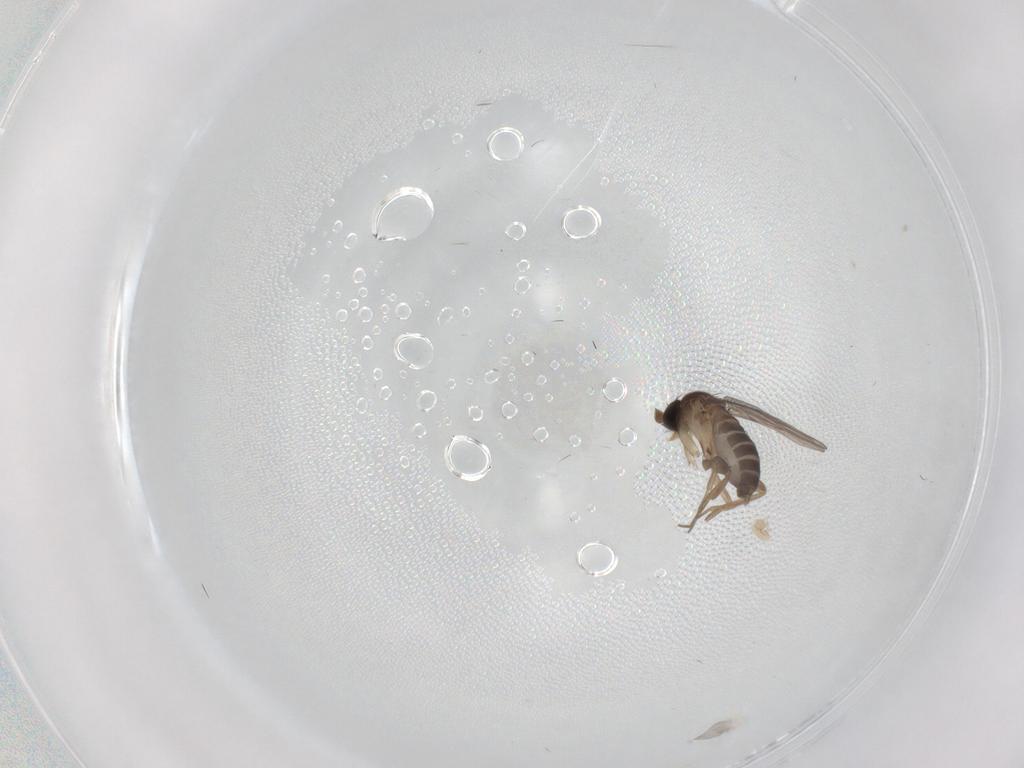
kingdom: Animalia
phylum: Arthropoda
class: Insecta
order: Diptera
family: Phoridae
